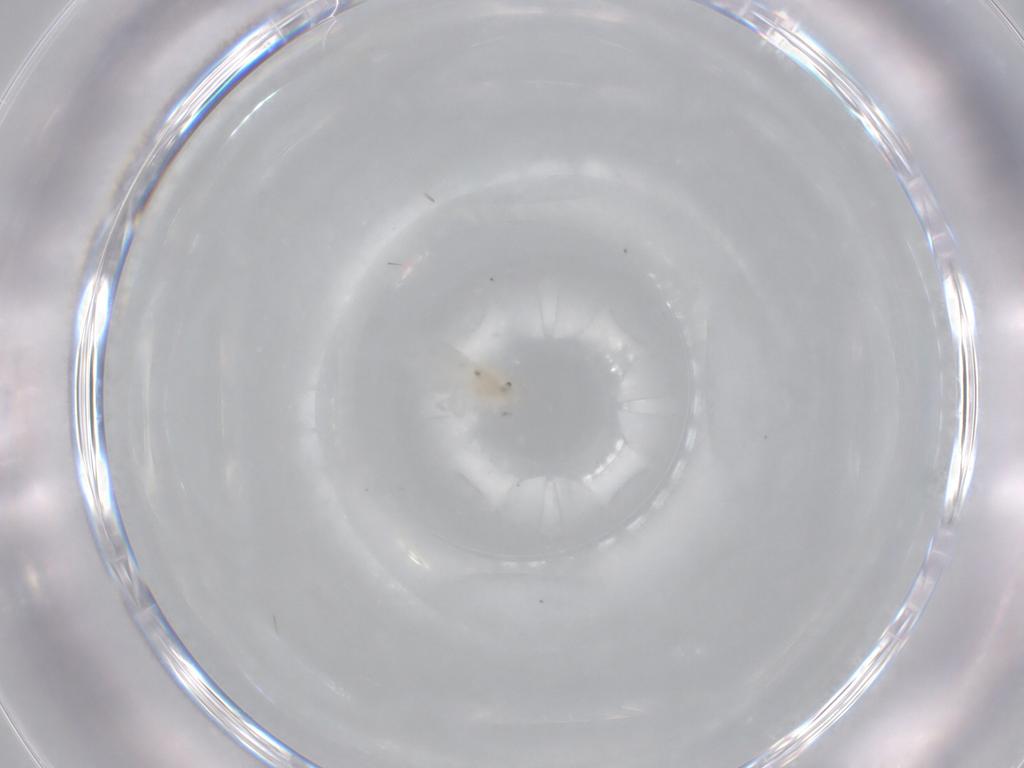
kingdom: Animalia
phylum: Arthropoda
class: Insecta
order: Diptera
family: Cecidomyiidae
